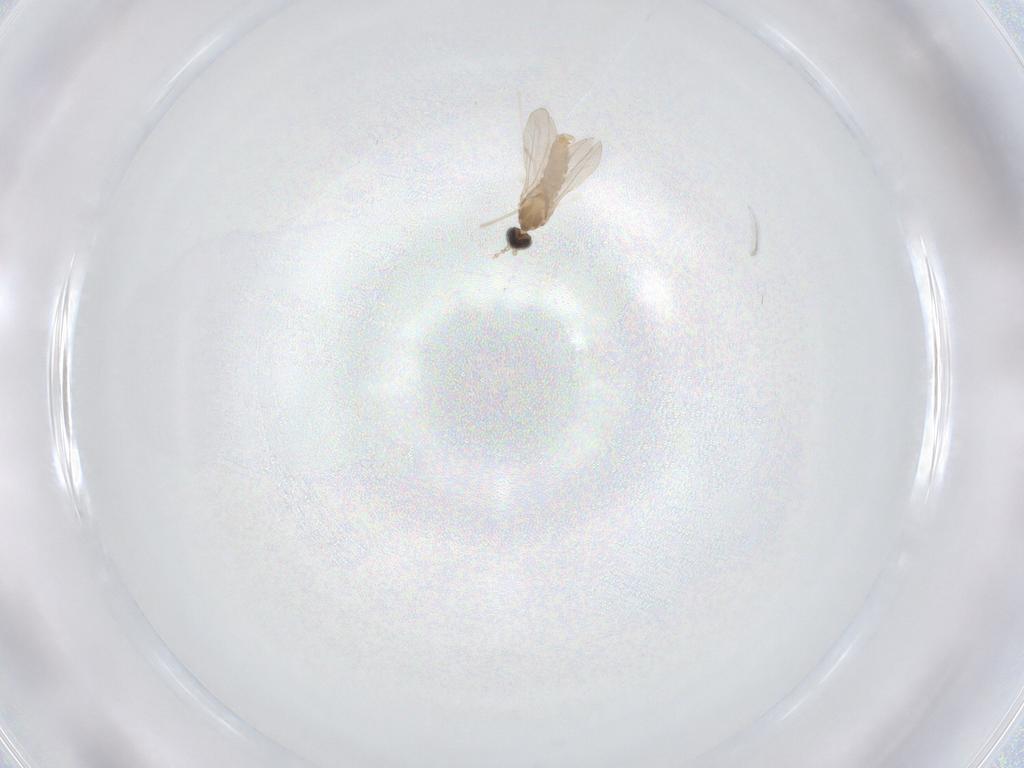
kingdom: Animalia
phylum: Arthropoda
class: Insecta
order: Diptera
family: Cecidomyiidae
